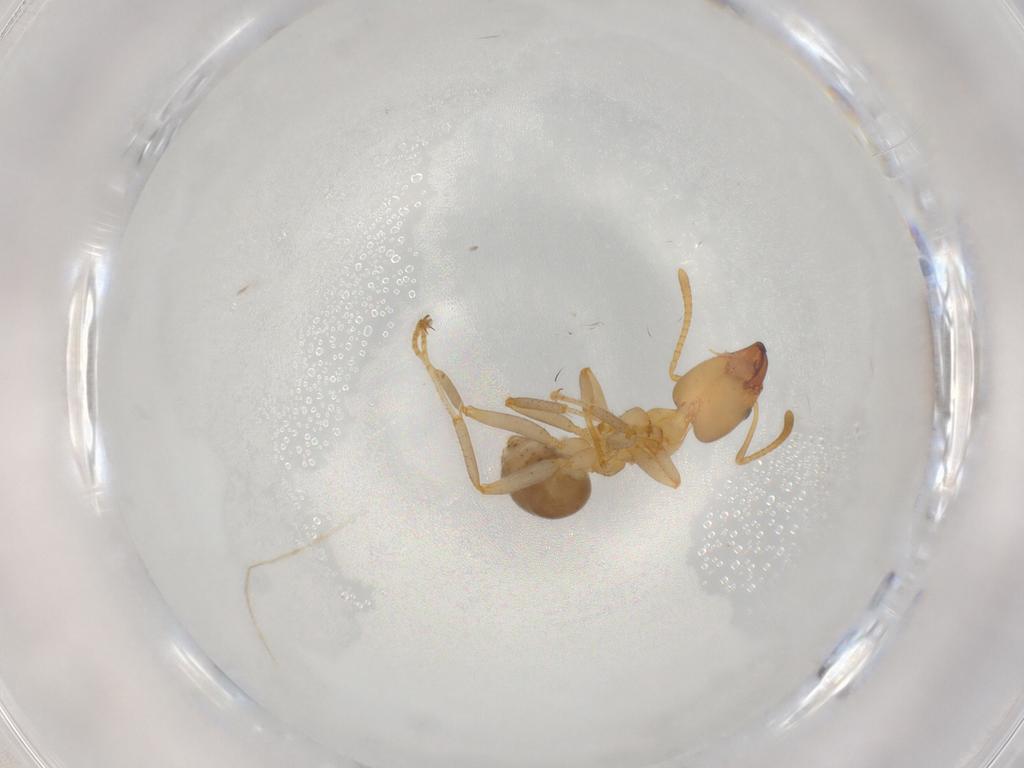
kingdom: Animalia
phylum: Arthropoda
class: Insecta
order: Hymenoptera
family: Formicidae
